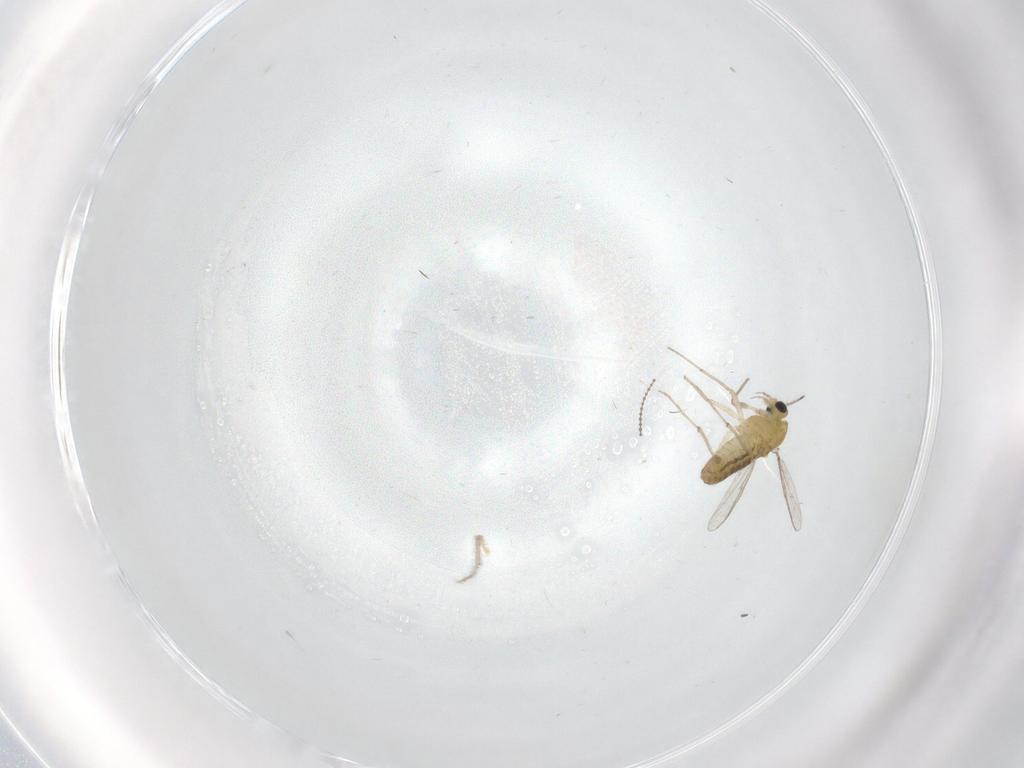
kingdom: Animalia
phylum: Arthropoda
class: Insecta
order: Diptera
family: Chironomidae
